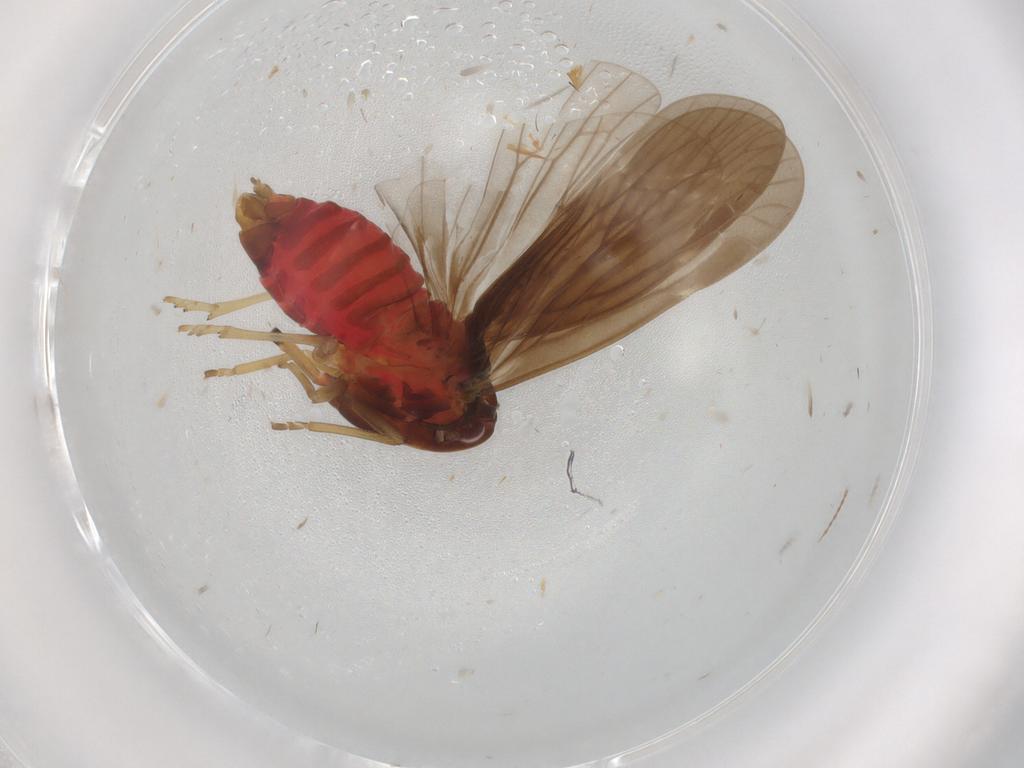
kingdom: Animalia
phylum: Arthropoda
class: Insecta
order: Hemiptera
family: Derbidae
